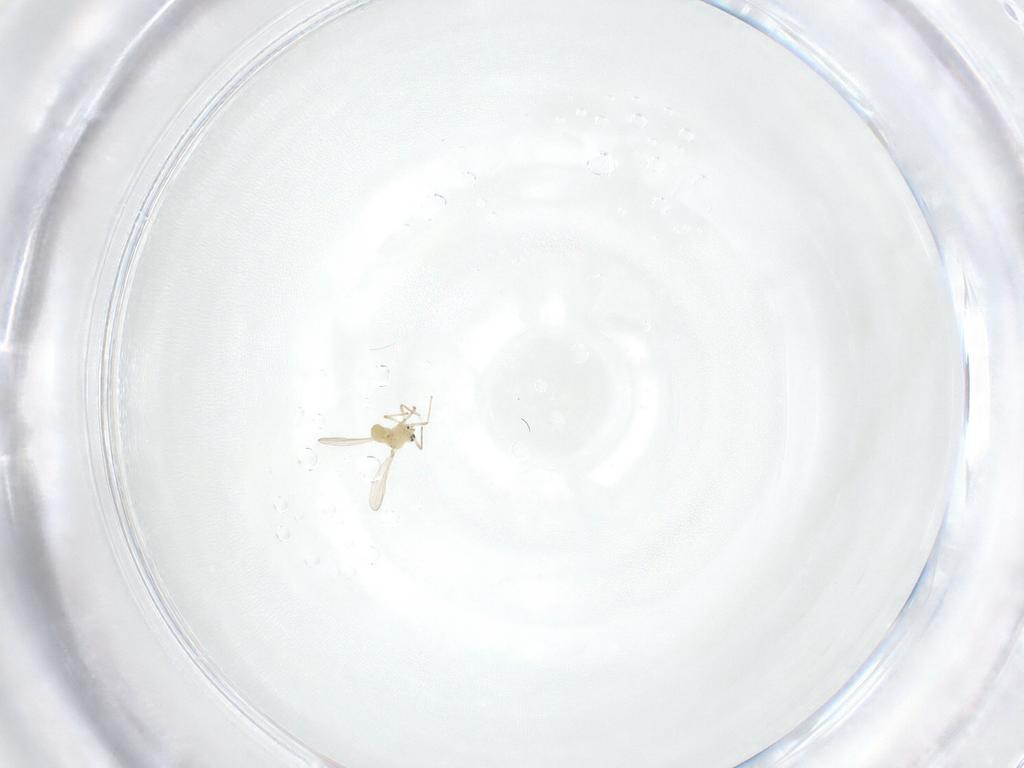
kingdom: Animalia
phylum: Arthropoda
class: Insecta
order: Diptera
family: Chironomidae
